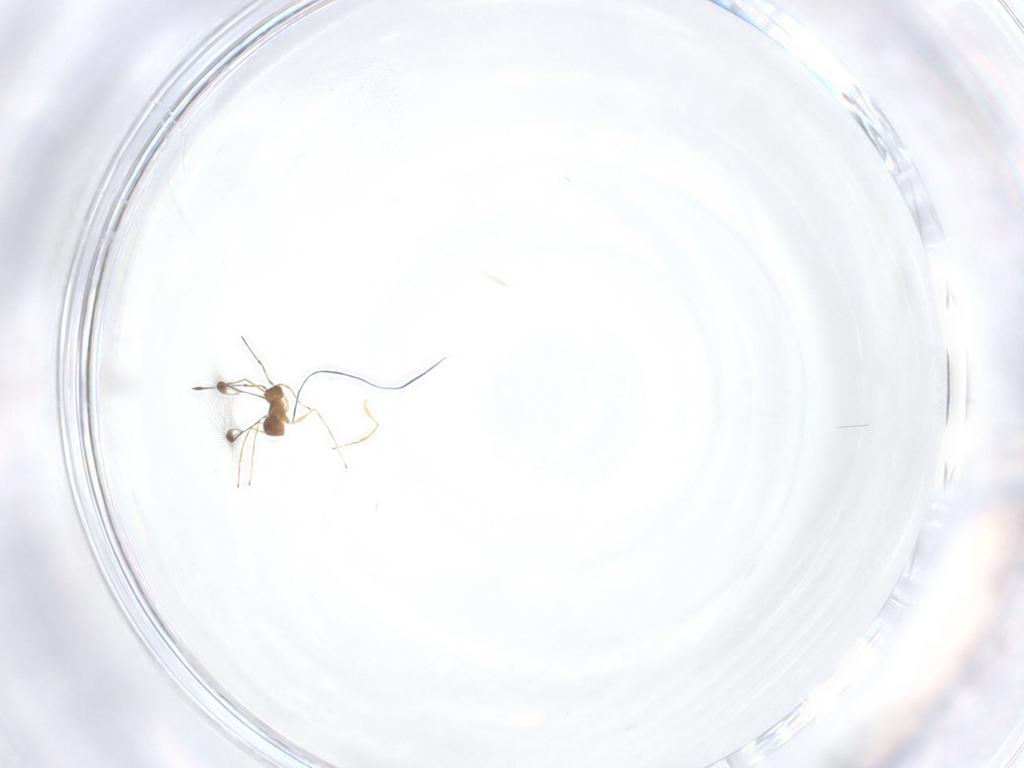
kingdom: Animalia
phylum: Arthropoda
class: Insecta
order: Hymenoptera
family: Mymaridae
